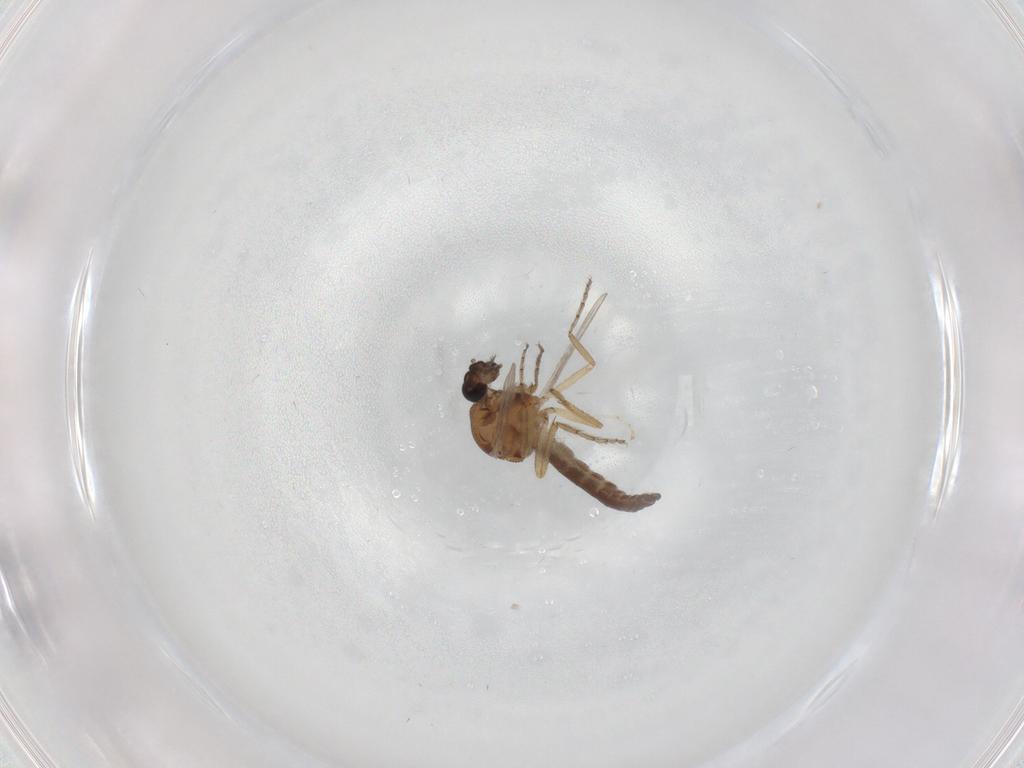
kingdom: Animalia
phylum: Arthropoda
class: Insecta
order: Diptera
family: Ceratopogonidae
